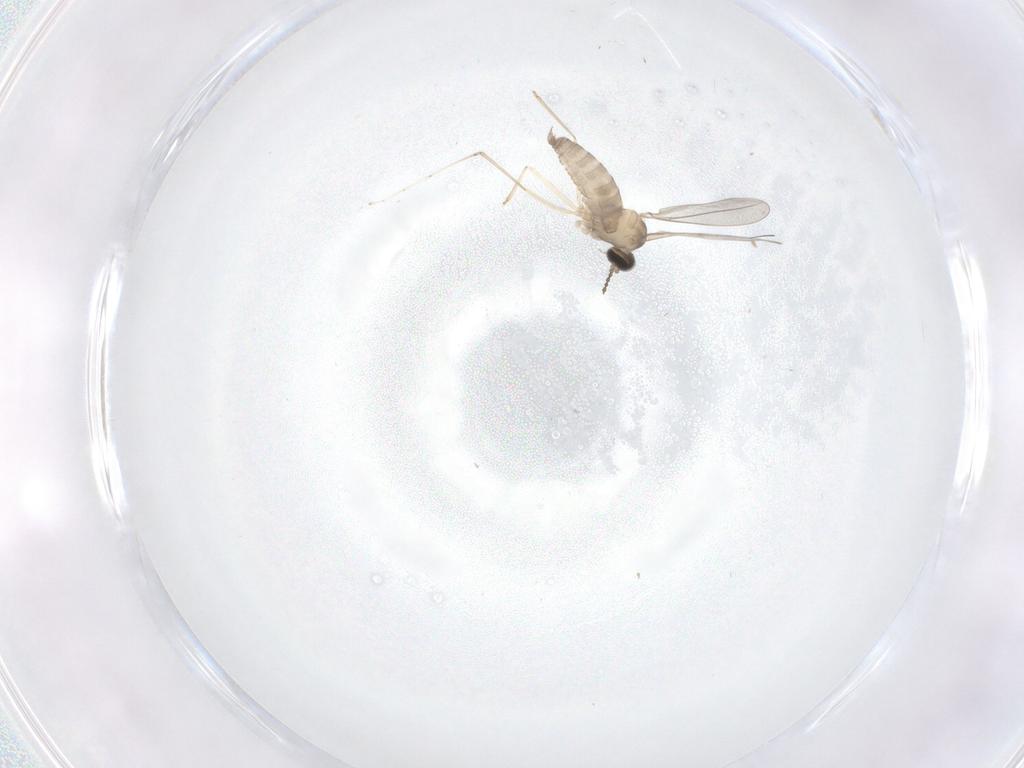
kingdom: Animalia
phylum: Arthropoda
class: Insecta
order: Diptera
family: Cecidomyiidae
